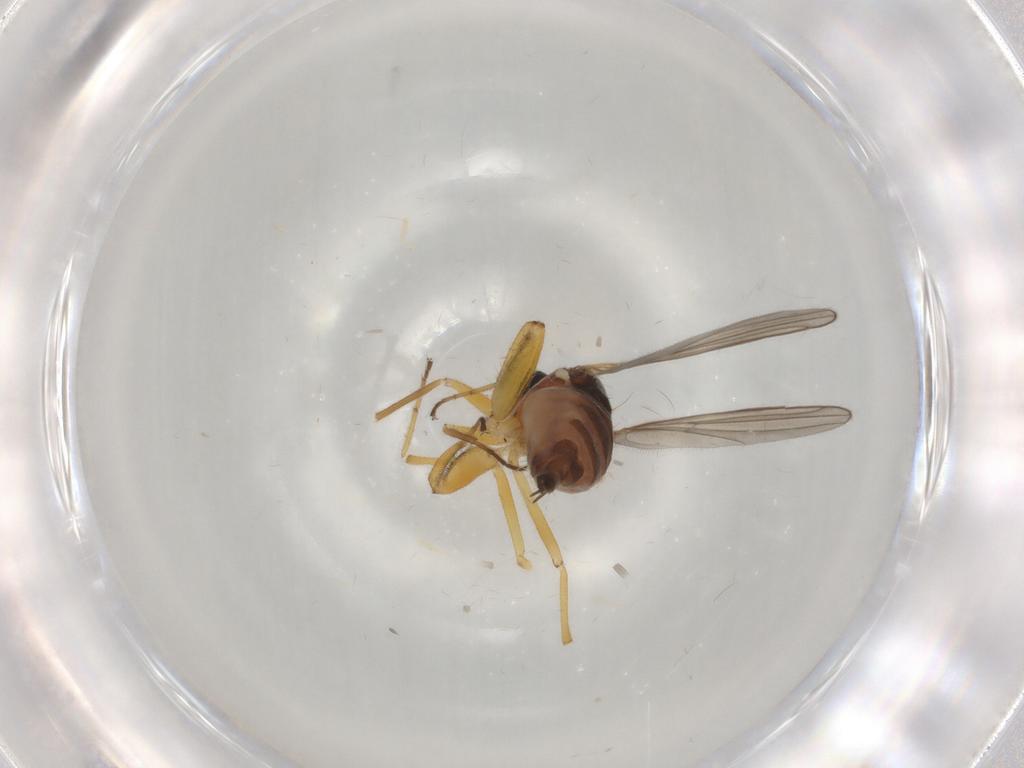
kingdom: Animalia
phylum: Arthropoda
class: Insecta
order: Diptera
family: Hybotidae
